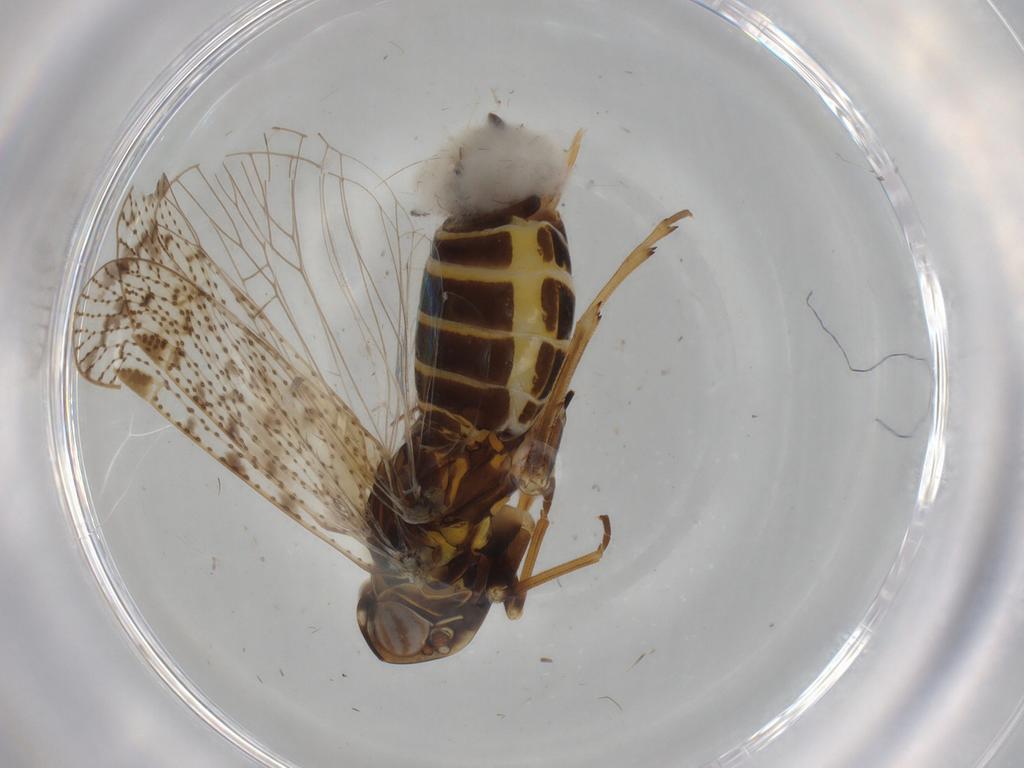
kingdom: Animalia
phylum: Arthropoda
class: Insecta
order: Hemiptera
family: Cixiidae
